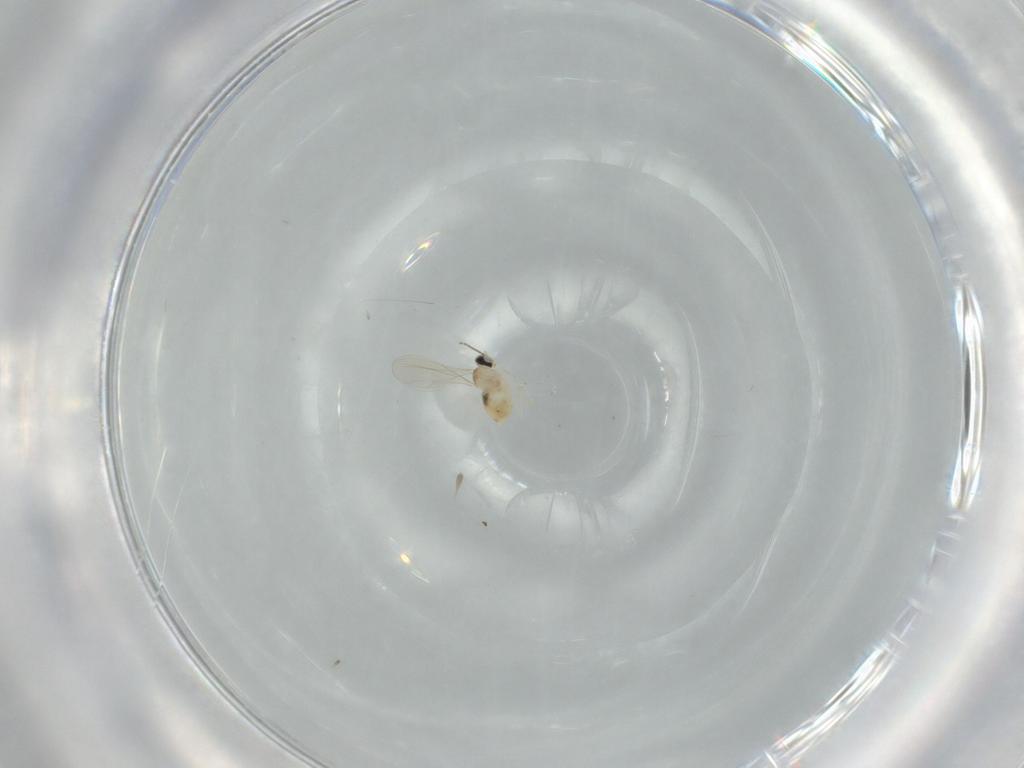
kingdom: Animalia
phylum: Arthropoda
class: Insecta
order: Diptera
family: Cecidomyiidae
